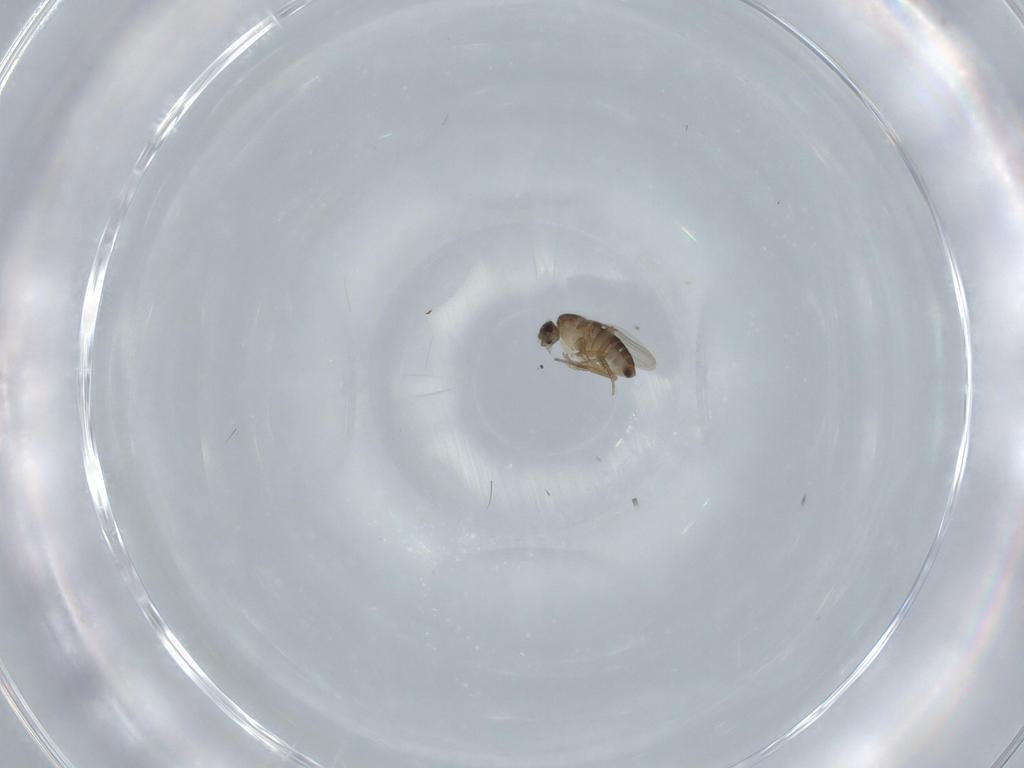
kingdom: Animalia
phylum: Arthropoda
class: Insecta
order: Diptera
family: Phoridae
